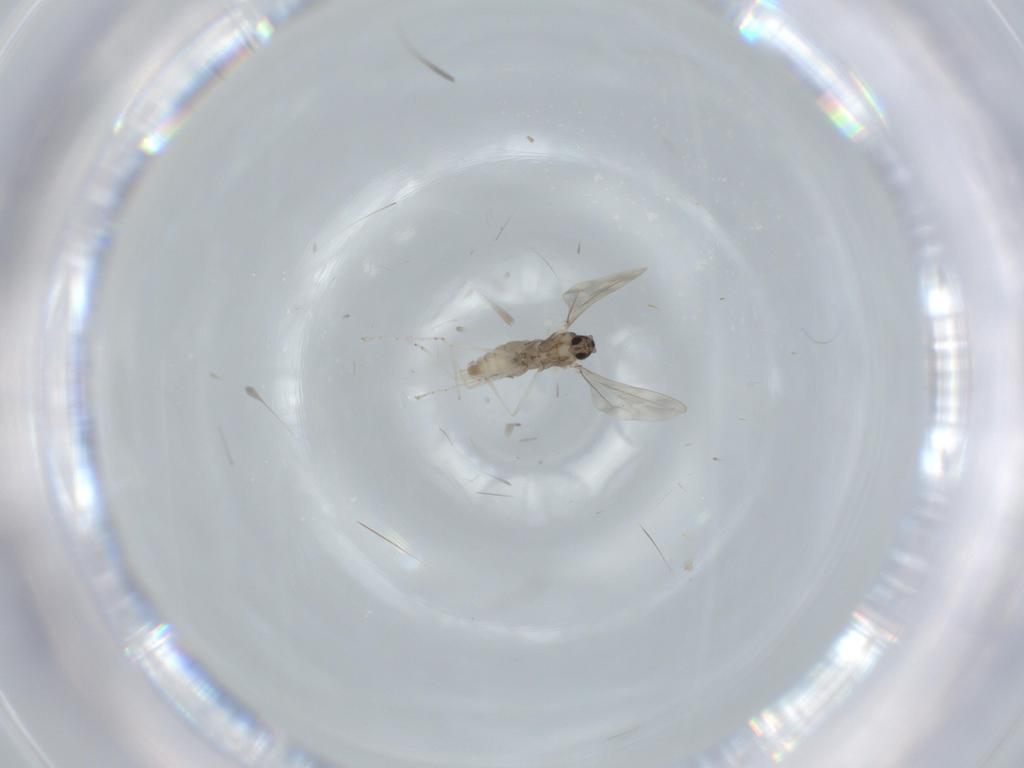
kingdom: Animalia
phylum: Arthropoda
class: Insecta
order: Diptera
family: Cecidomyiidae
